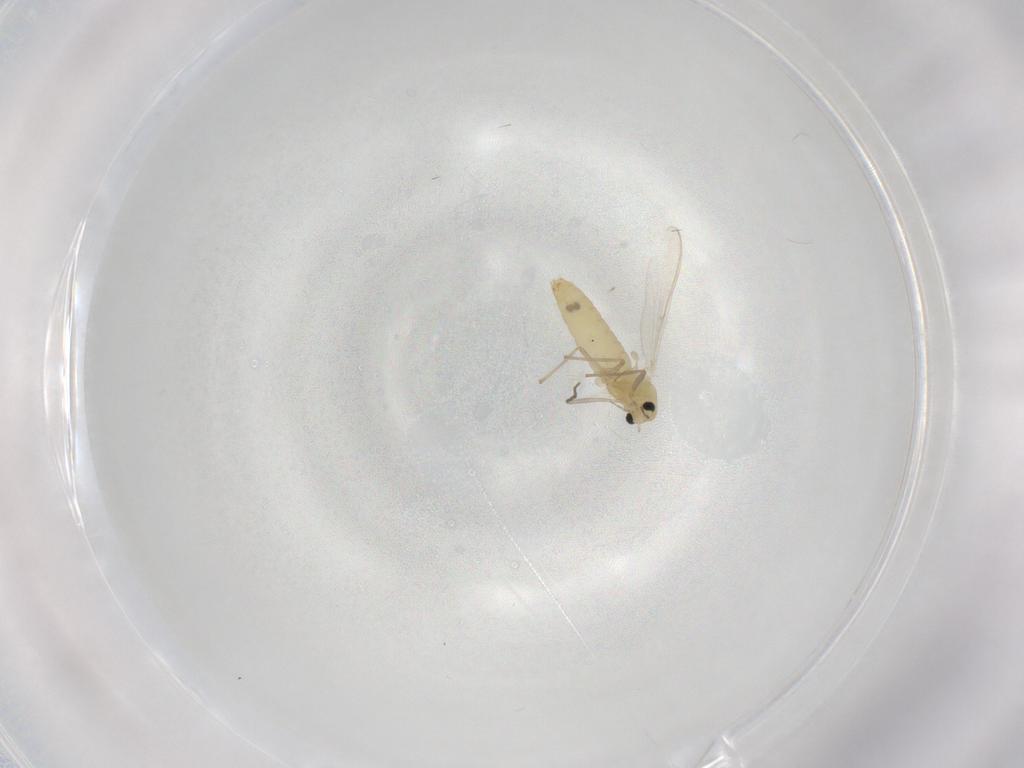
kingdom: Animalia
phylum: Arthropoda
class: Insecta
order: Diptera
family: Chironomidae
